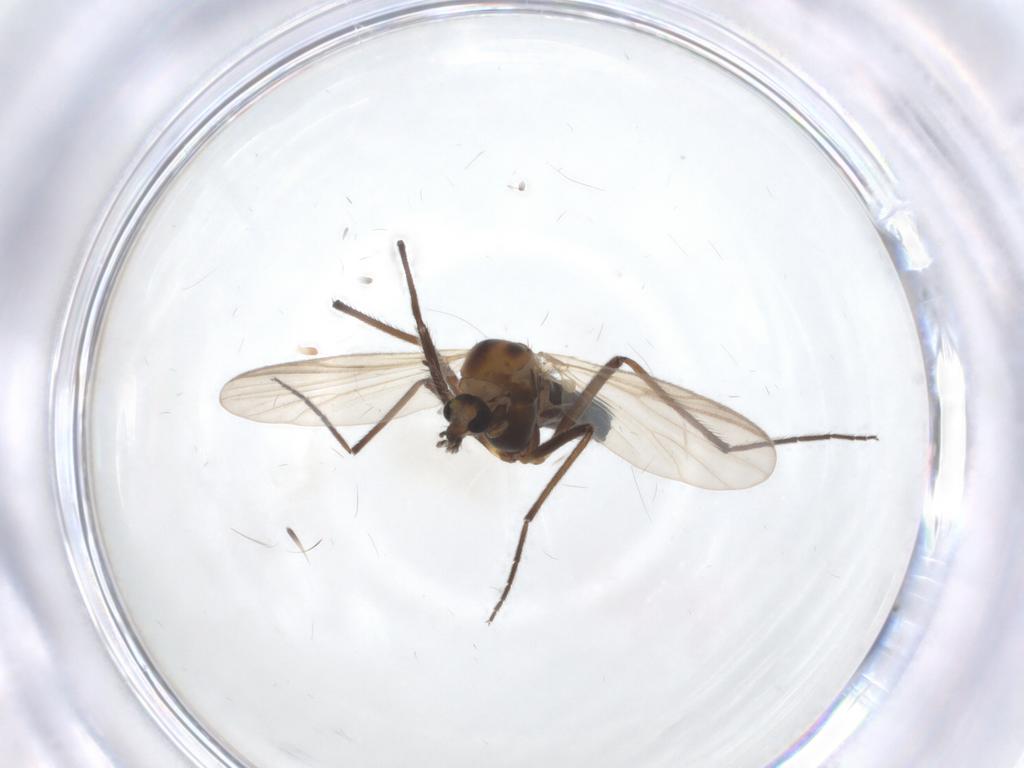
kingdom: Animalia
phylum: Arthropoda
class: Insecta
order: Diptera
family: Chironomidae
